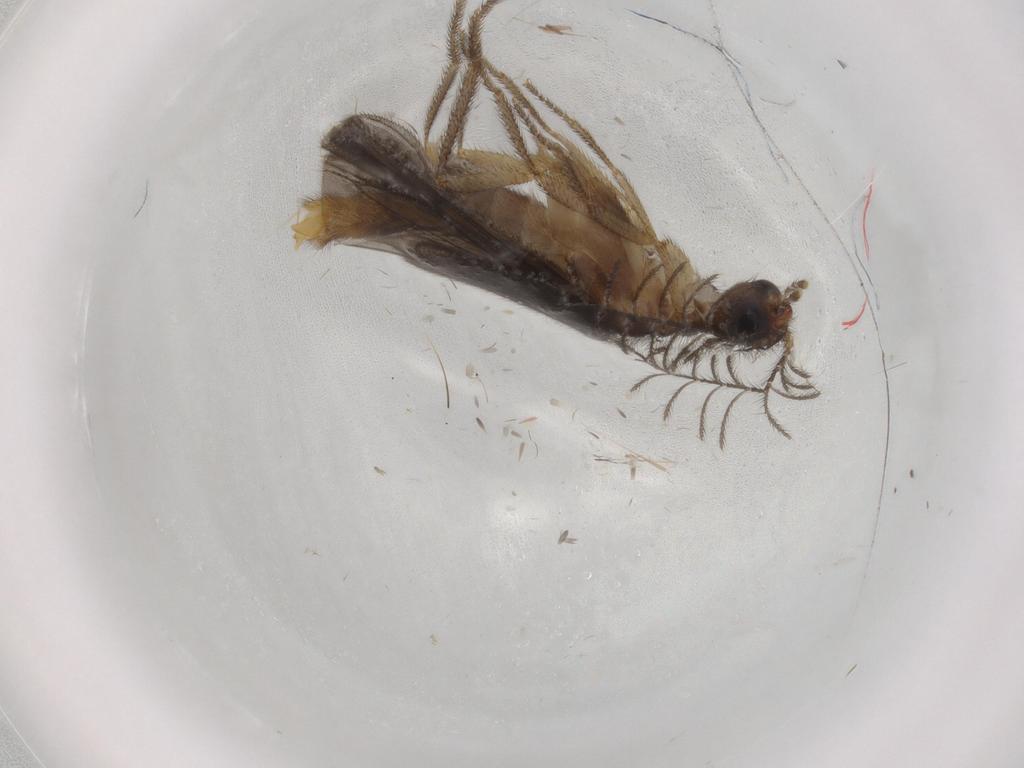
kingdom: Animalia
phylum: Arthropoda
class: Insecta
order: Coleoptera
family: Phengodidae
